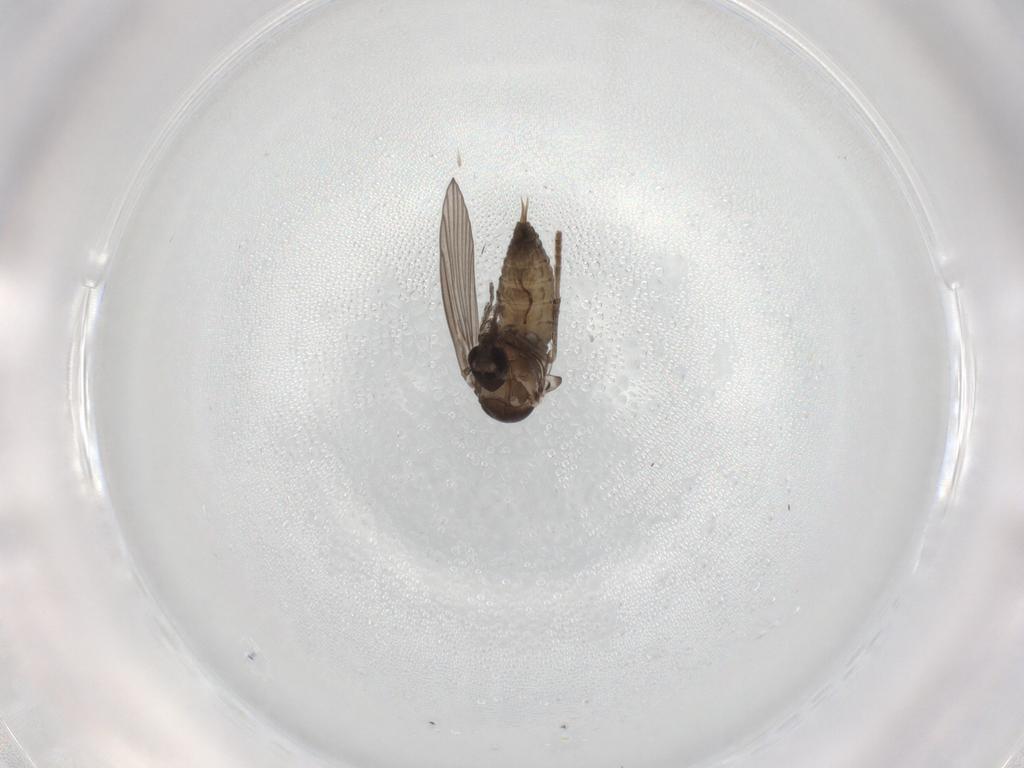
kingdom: Animalia
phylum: Arthropoda
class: Insecta
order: Diptera
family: Psychodidae
